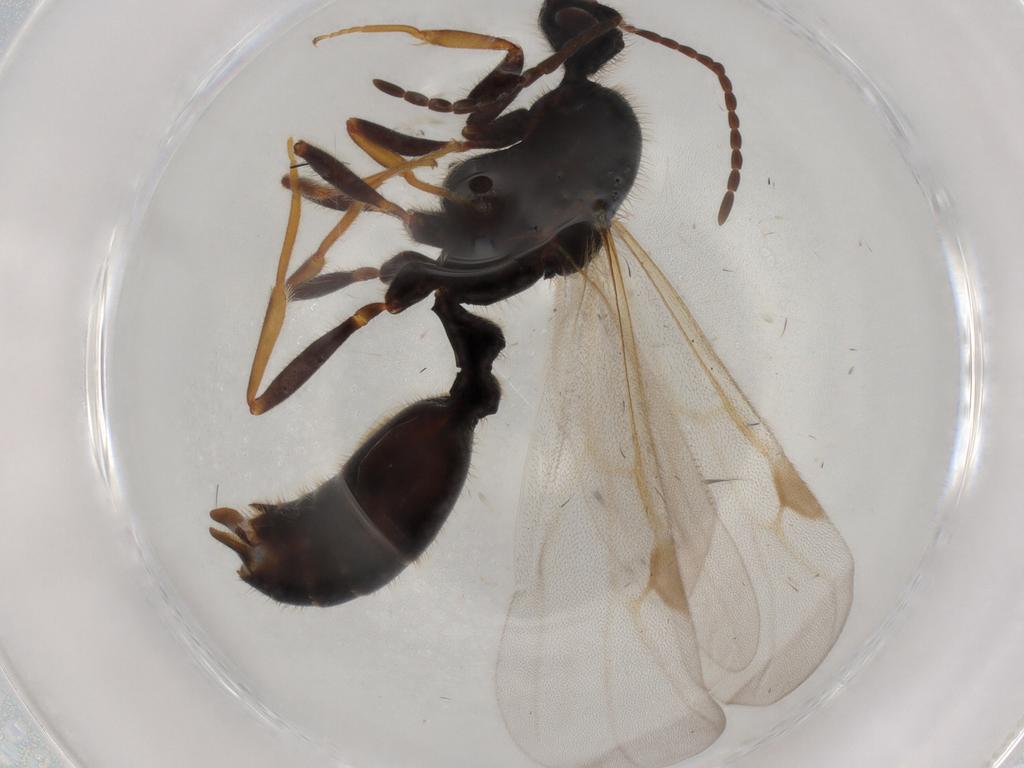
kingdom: Animalia
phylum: Arthropoda
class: Insecta
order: Hymenoptera
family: Formicidae
